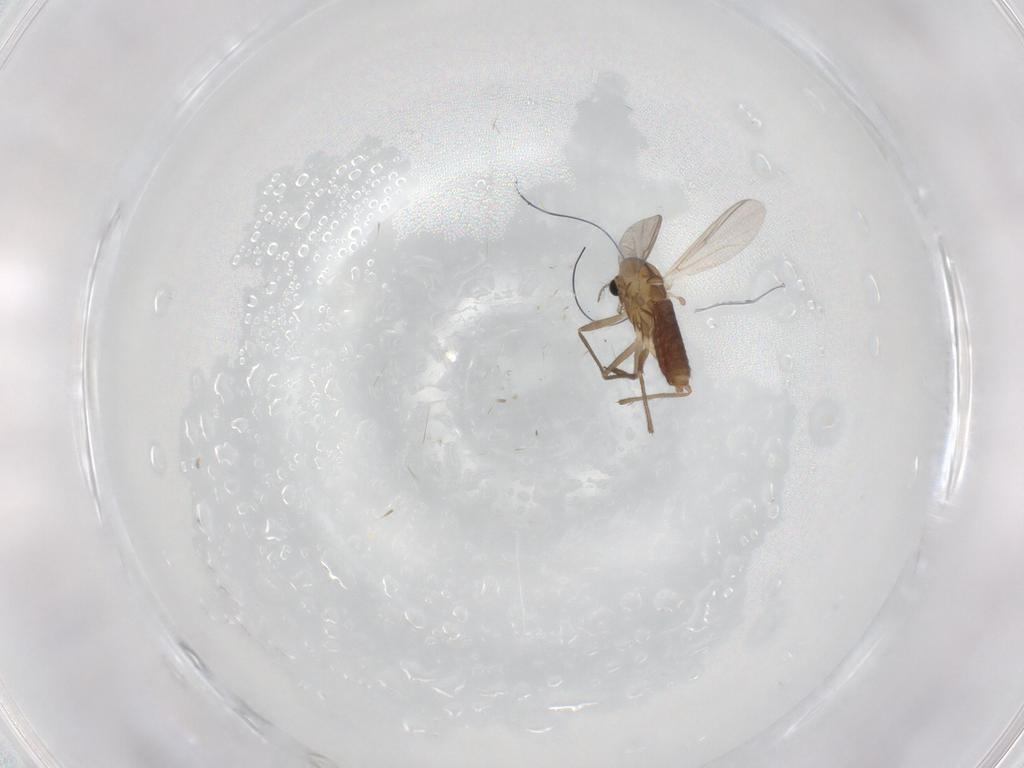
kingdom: Animalia
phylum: Arthropoda
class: Insecta
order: Diptera
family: Chironomidae
